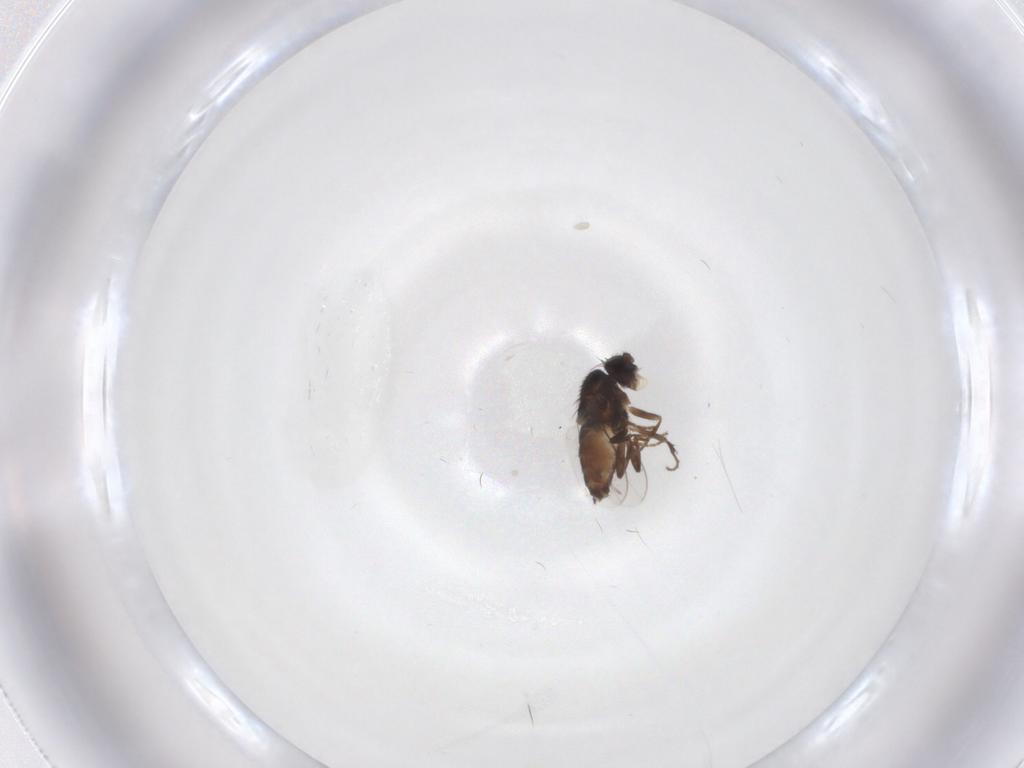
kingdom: Animalia
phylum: Arthropoda
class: Insecta
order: Diptera
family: Sphaeroceridae
